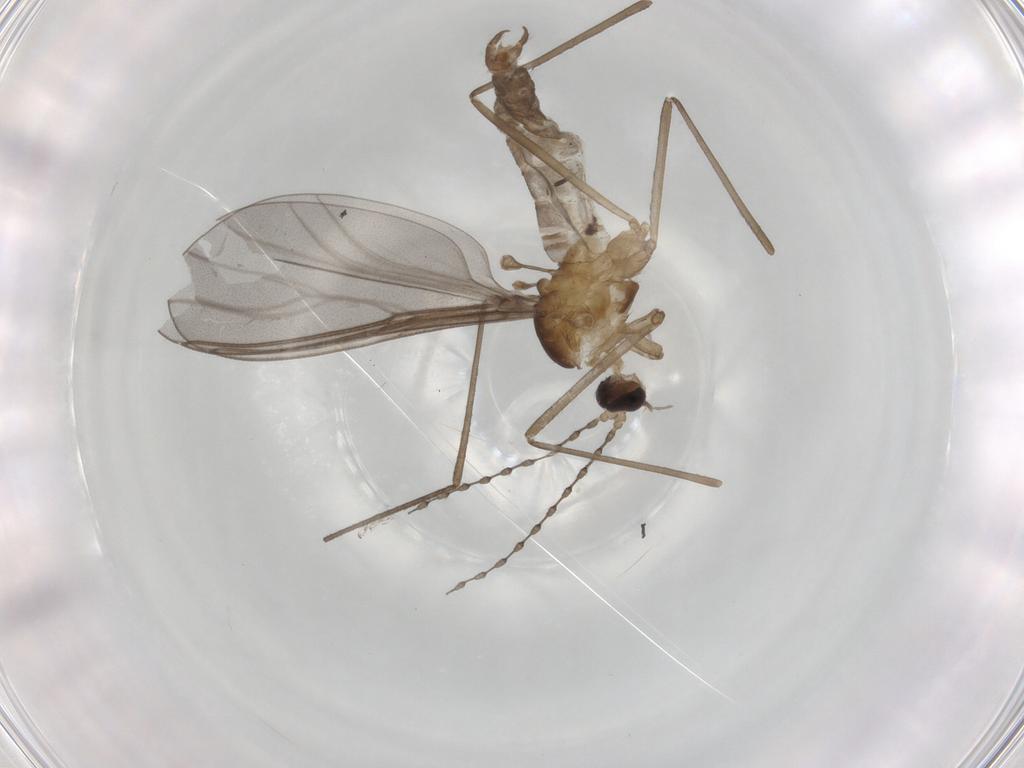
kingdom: Animalia
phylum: Arthropoda
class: Insecta
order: Diptera
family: Cecidomyiidae
